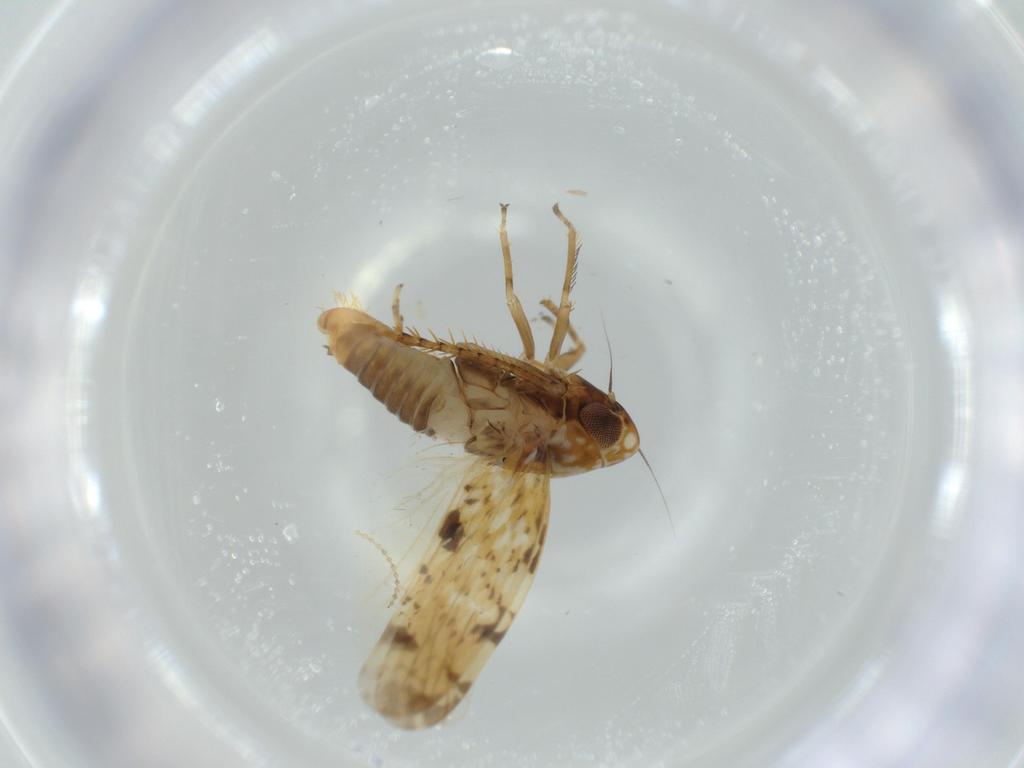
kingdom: Animalia
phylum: Arthropoda
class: Insecta
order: Hemiptera
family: Cicadellidae
